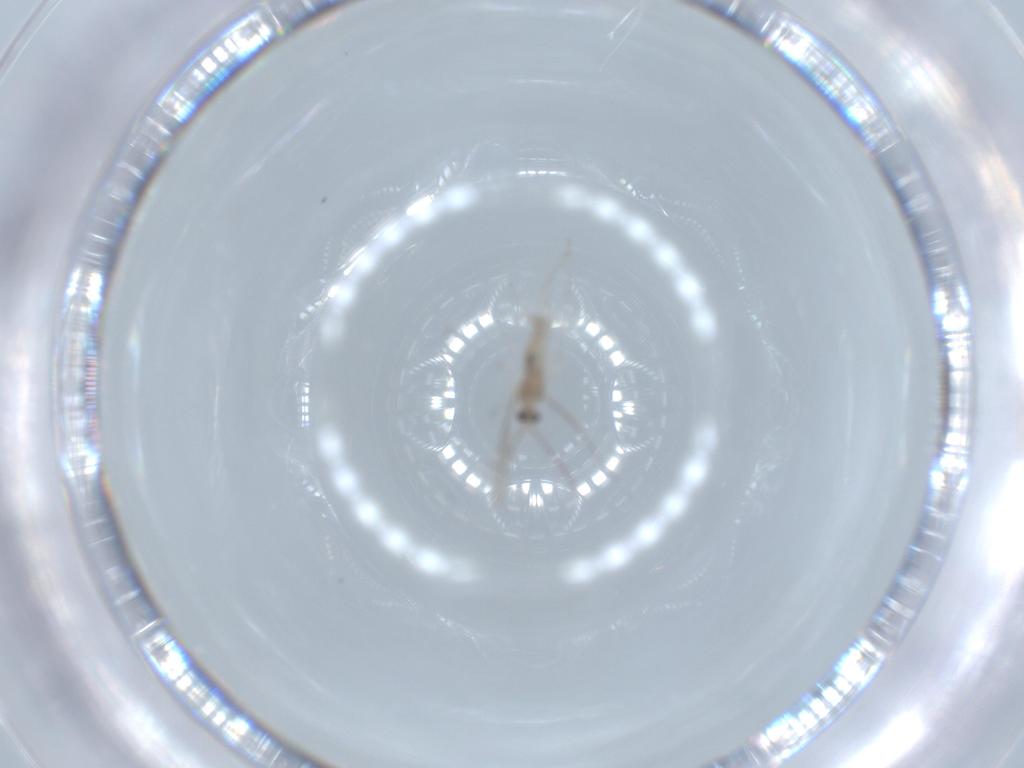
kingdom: Animalia
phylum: Arthropoda
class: Insecta
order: Diptera
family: Cecidomyiidae
